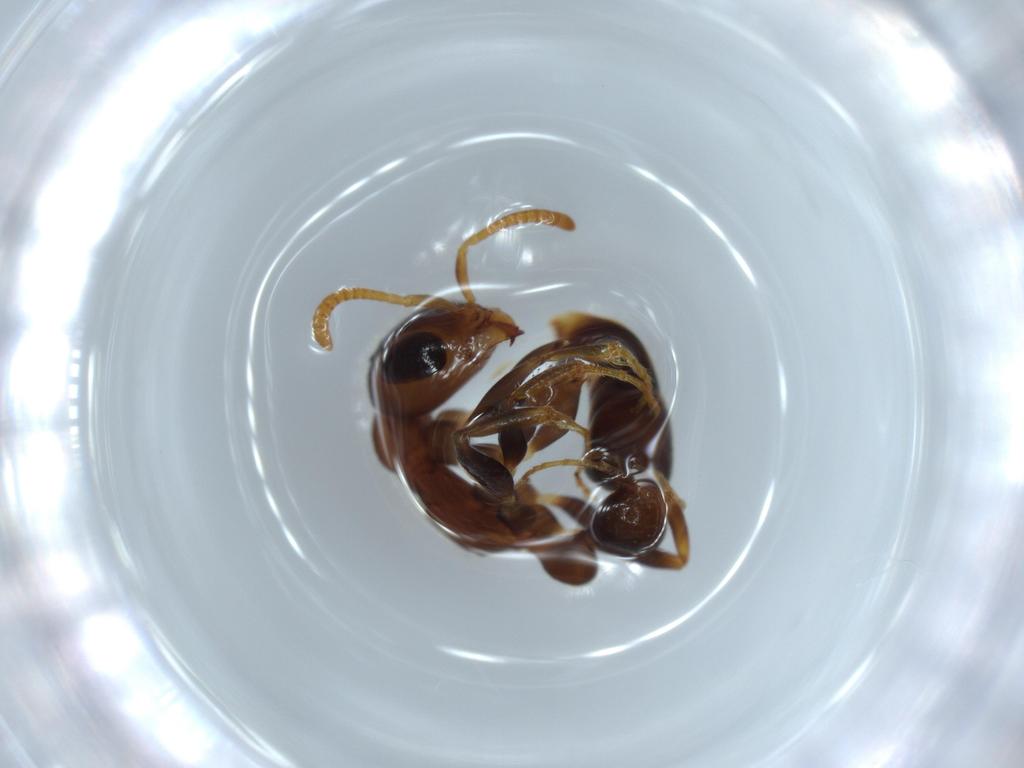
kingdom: Animalia
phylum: Arthropoda
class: Insecta
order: Hymenoptera
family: Formicidae
